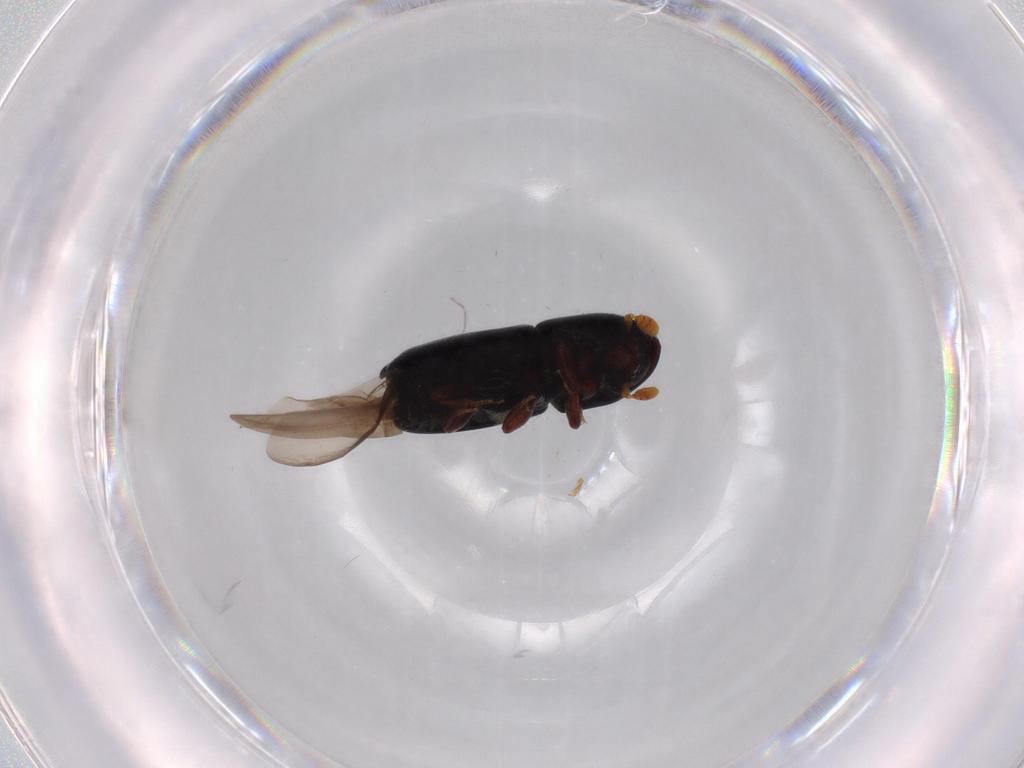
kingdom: Animalia
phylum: Arthropoda
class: Insecta
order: Coleoptera
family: Curculionidae
